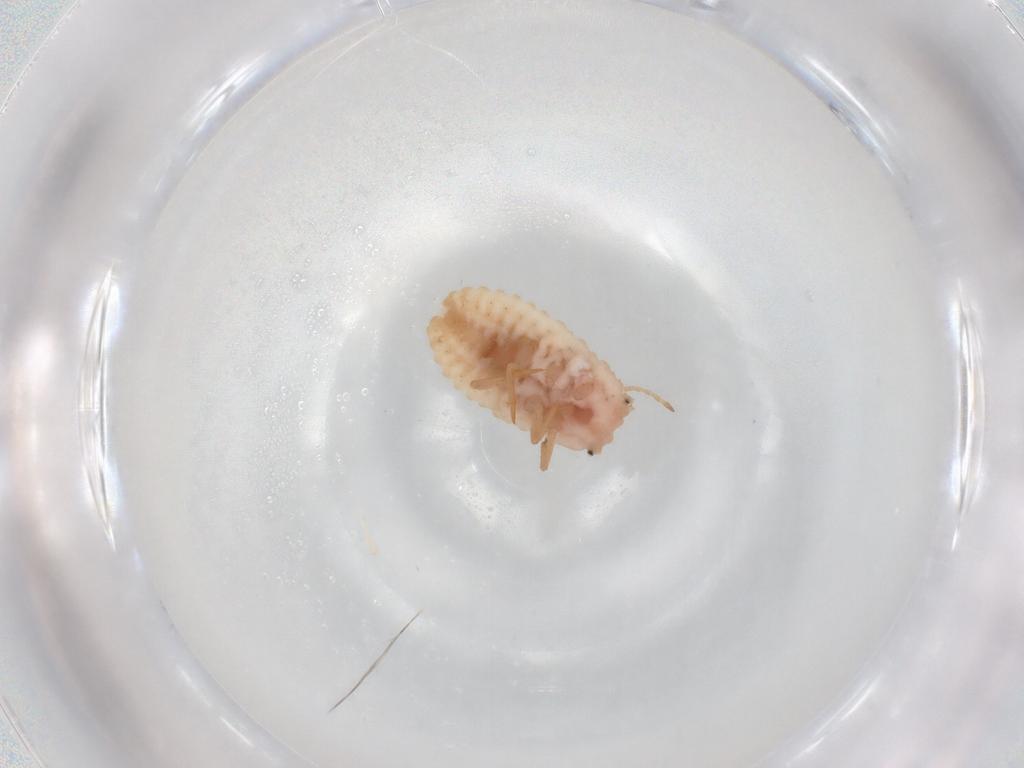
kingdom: Animalia
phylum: Arthropoda
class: Insecta
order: Hemiptera
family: Coccoidea_incertae_sedis
